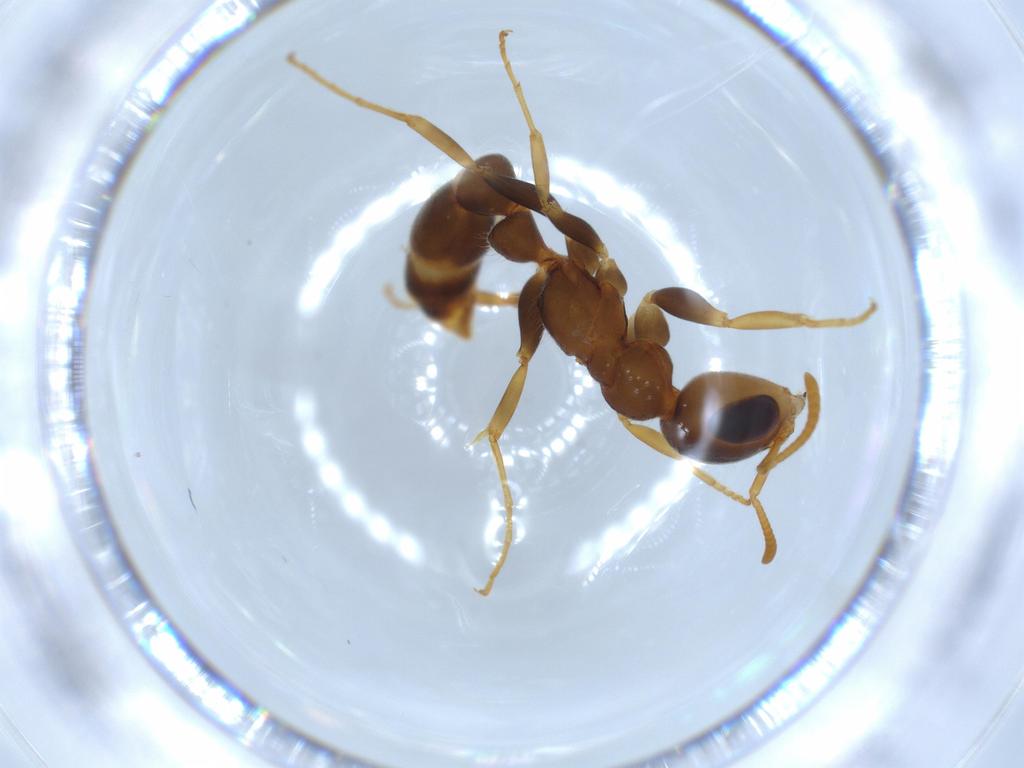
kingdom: Animalia
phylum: Arthropoda
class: Insecta
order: Hymenoptera
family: Formicidae
